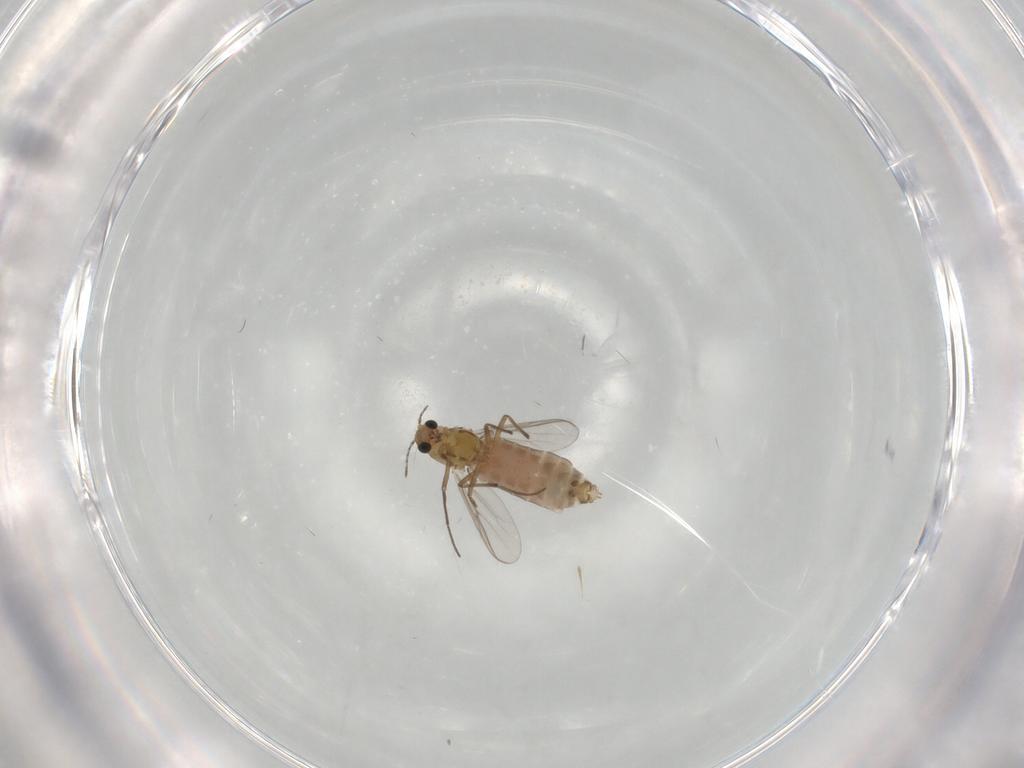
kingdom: Animalia
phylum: Arthropoda
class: Insecta
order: Diptera
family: Chironomidae
